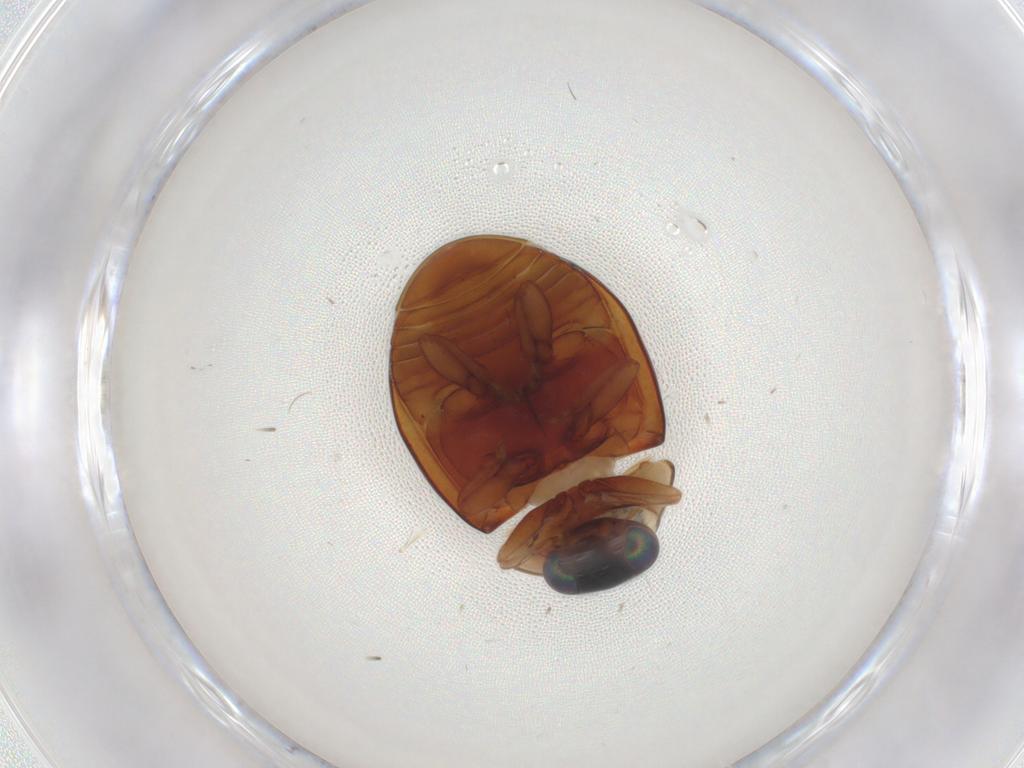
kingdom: Animalia
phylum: Arthropoda
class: Insecta
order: Coleoptera
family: Coccinellidae
